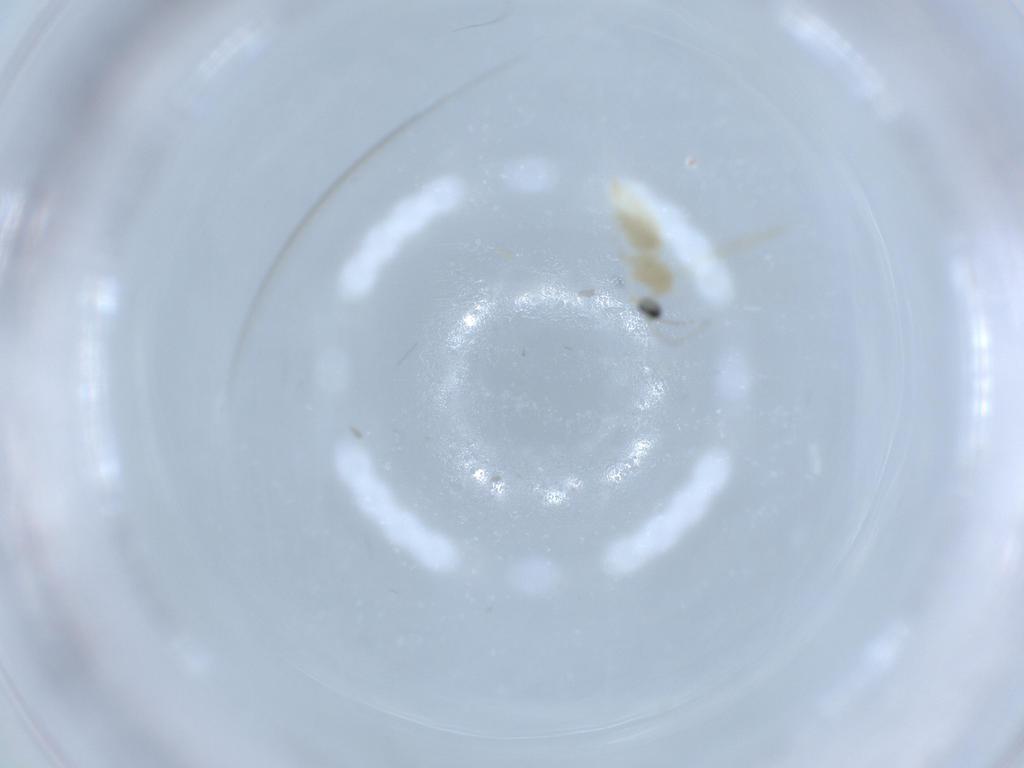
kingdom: Animalia
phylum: Arthropoda
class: Insecta
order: Diptera
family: Cecidomyiidae
